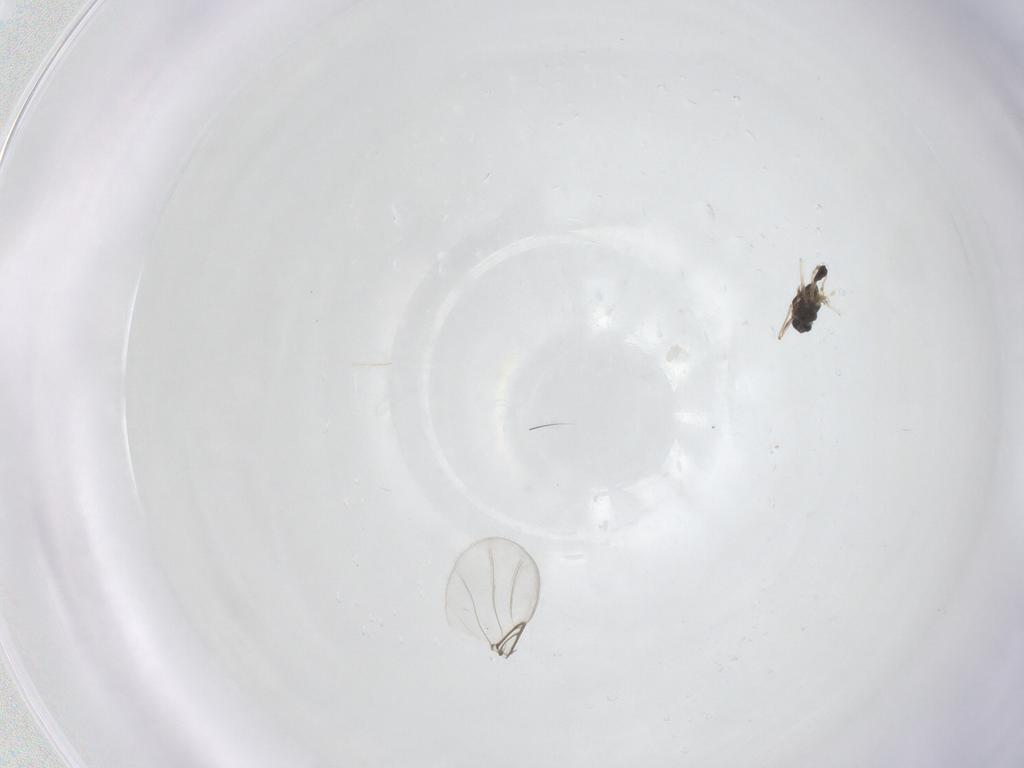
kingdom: Animalia
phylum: Arthropoda
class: Insecta
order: Diptera
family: Chironomidae
